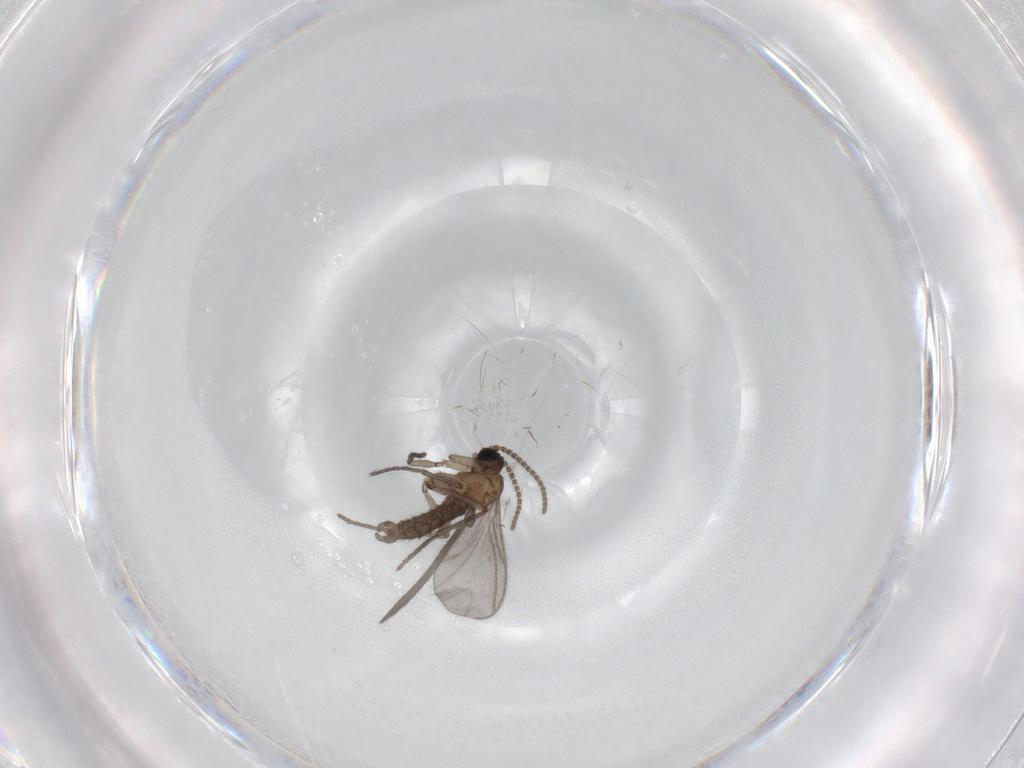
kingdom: Animalia
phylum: Arthropoda
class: Insecta
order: Diptera
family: Sciaridae
